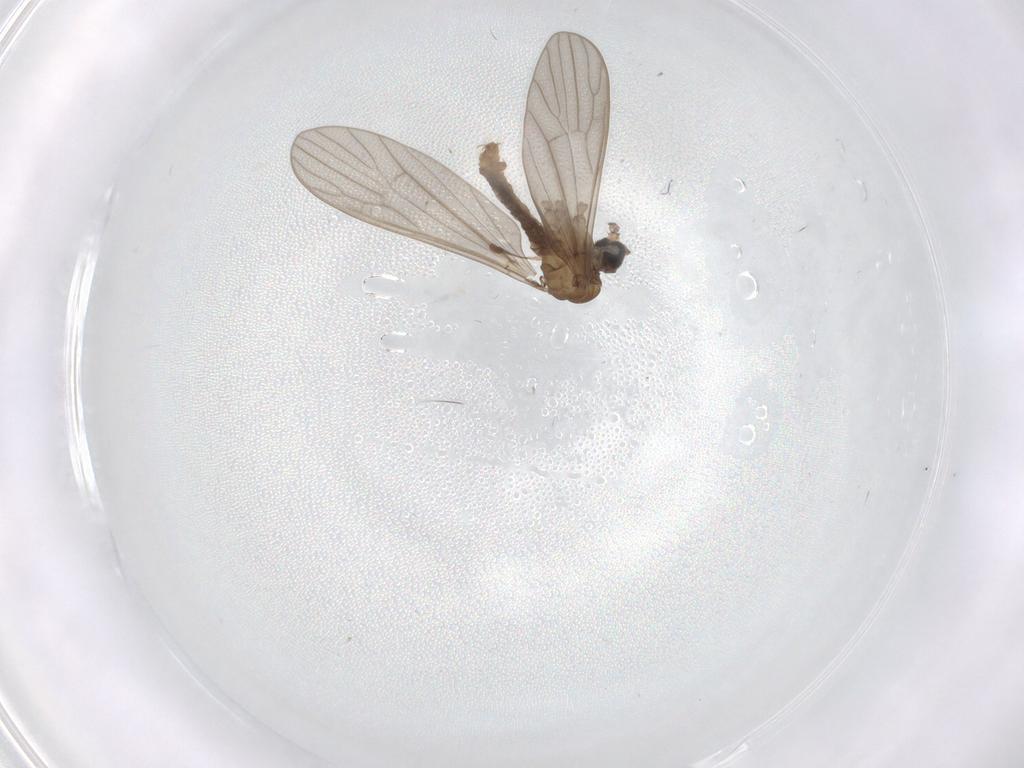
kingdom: Animalia
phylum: Arthropoda
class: Insecta
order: Diptera
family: Limoniidae
